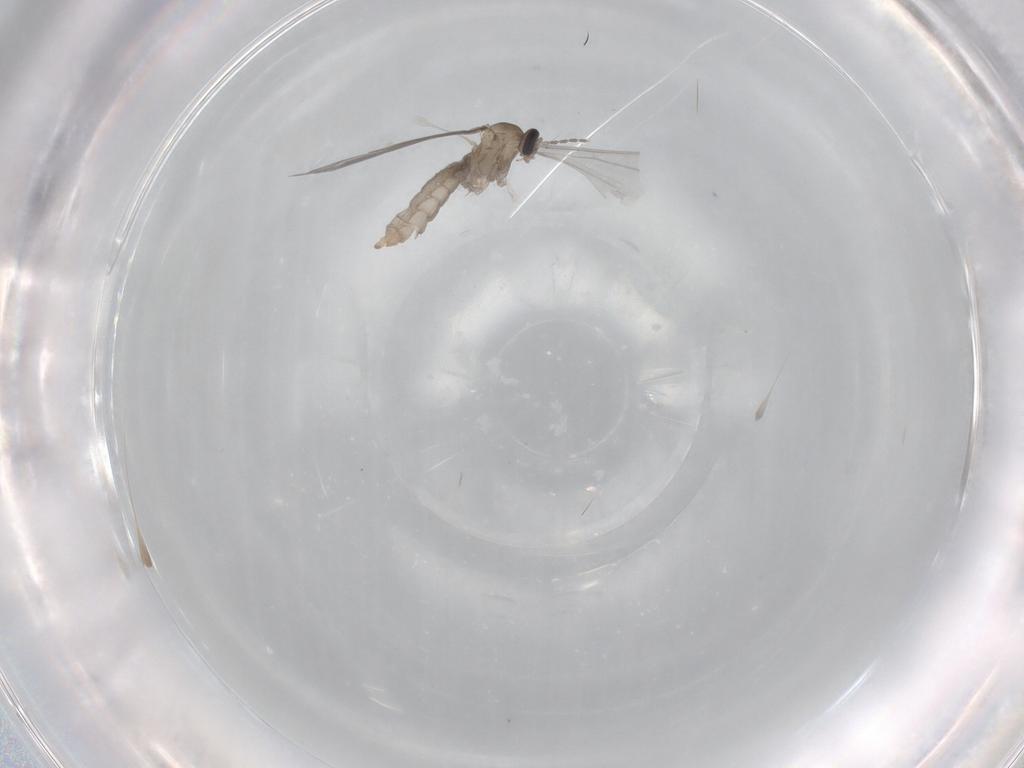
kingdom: Animalia
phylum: Arthropoda
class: Insecta
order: Diptera
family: Cecidomyiidae
